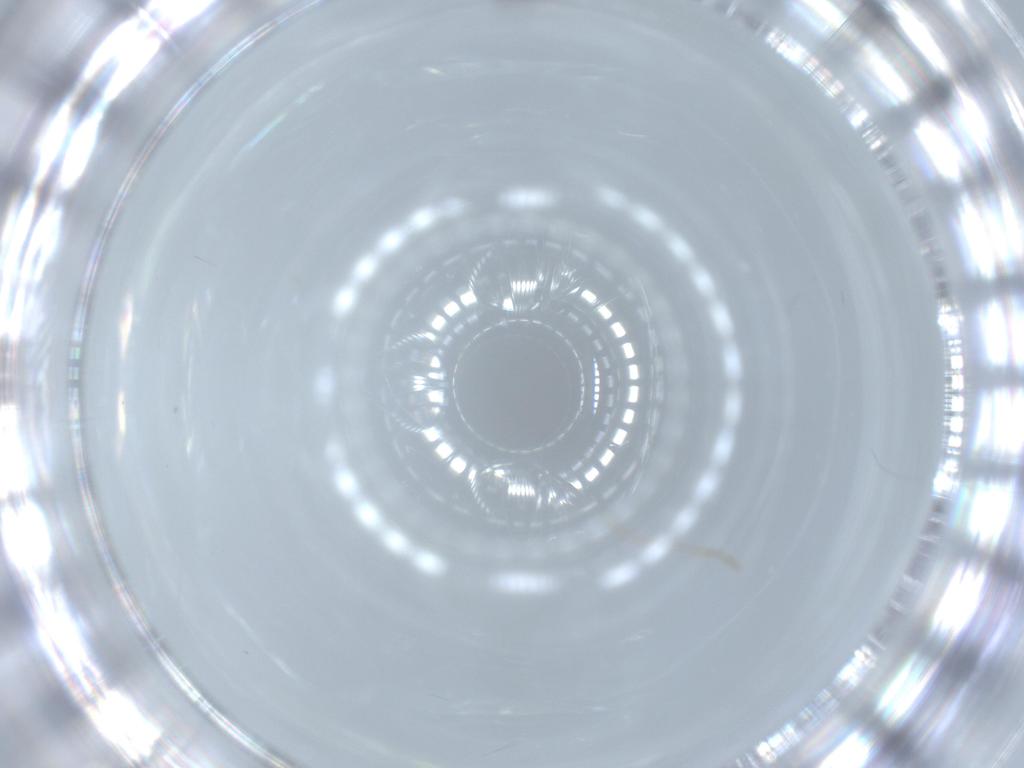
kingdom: Animalia
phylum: Arthropoda
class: Insecta
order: Diptera
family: Cecidomyiidae
